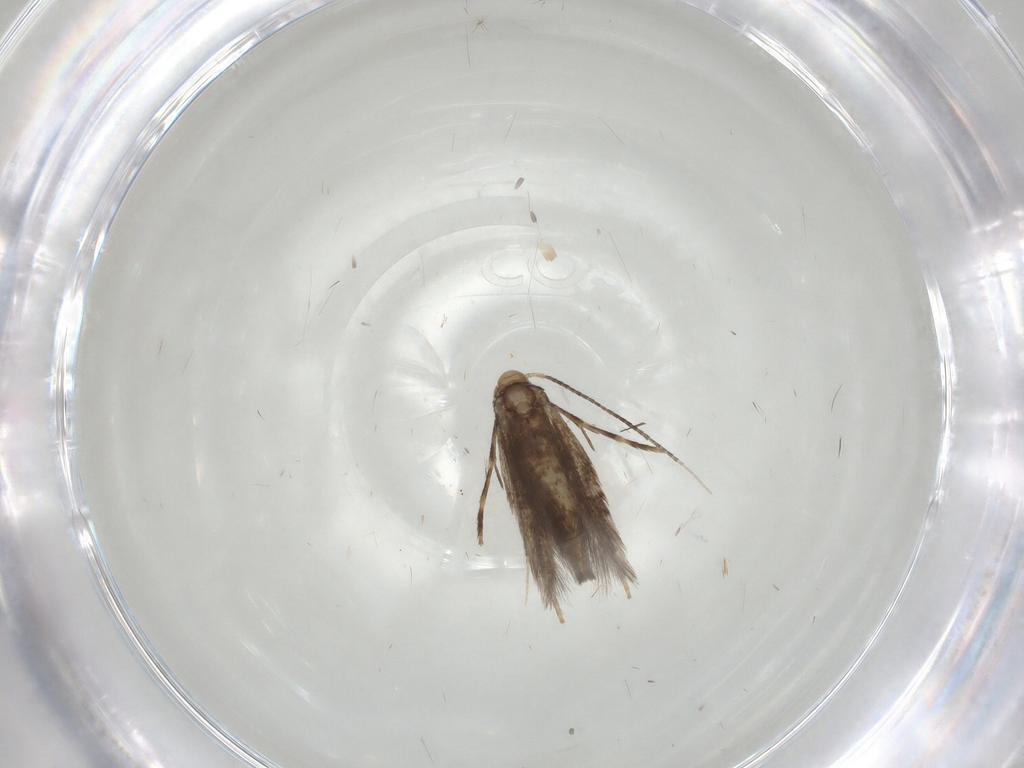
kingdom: Animalia
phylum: Arthropoda
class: Insecta
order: Lepidoptera
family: Gracillariidae
